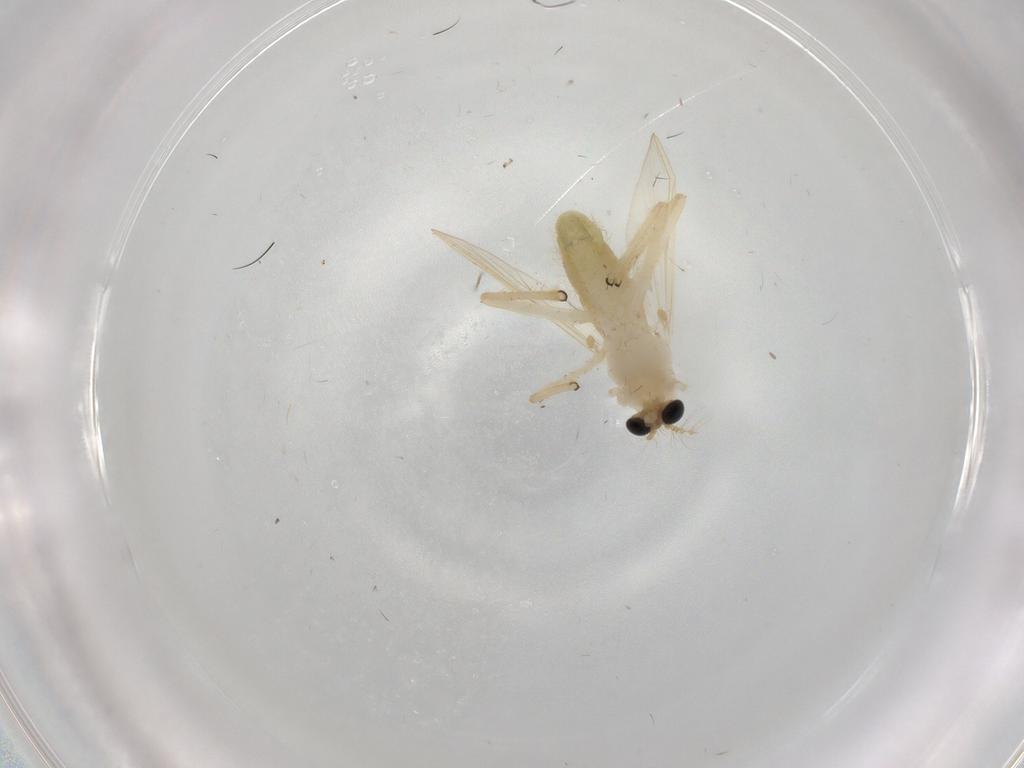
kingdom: Animalia
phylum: Arthropoda
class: Insecta
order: Diptera
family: Chironomidae
